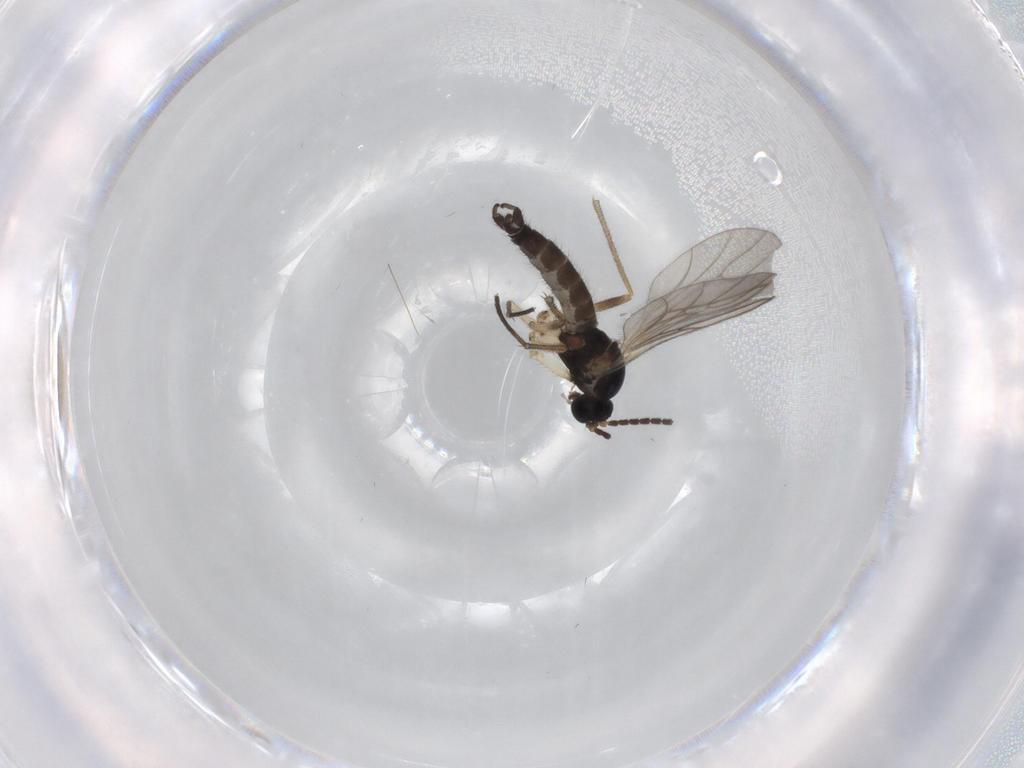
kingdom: Animalia
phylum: Arthropoda
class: Insecta
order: Diptera
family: Sciaridae
